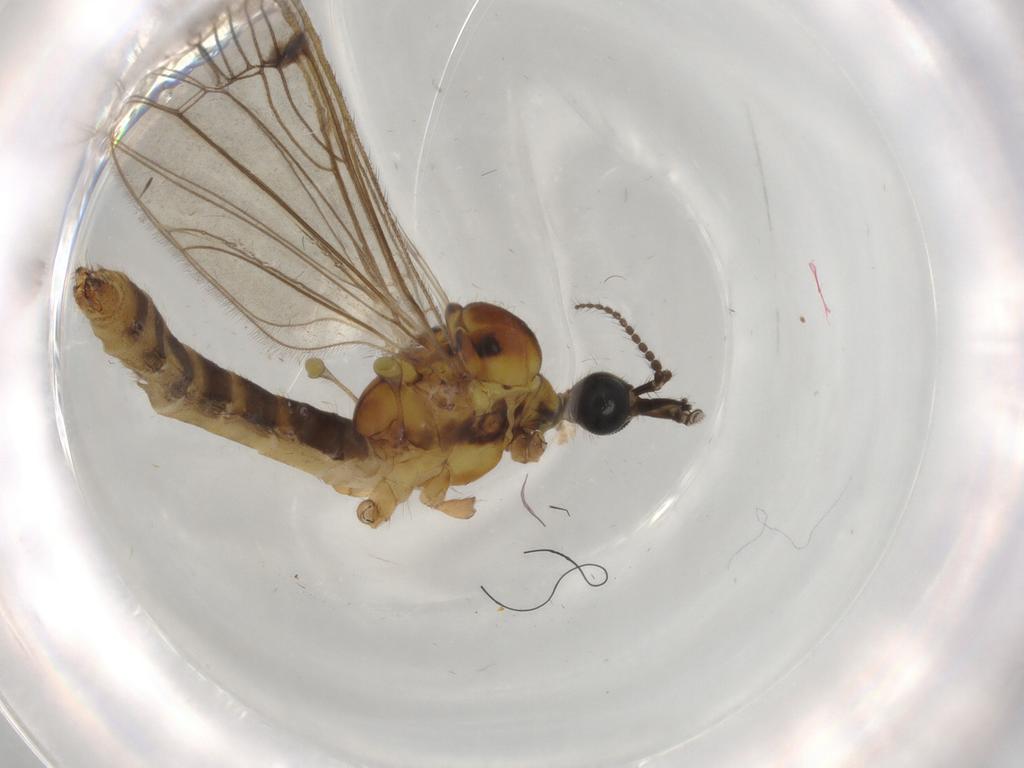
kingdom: Animalia
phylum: Arthropoda
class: Insecta
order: Diptera
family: Limoniidae
